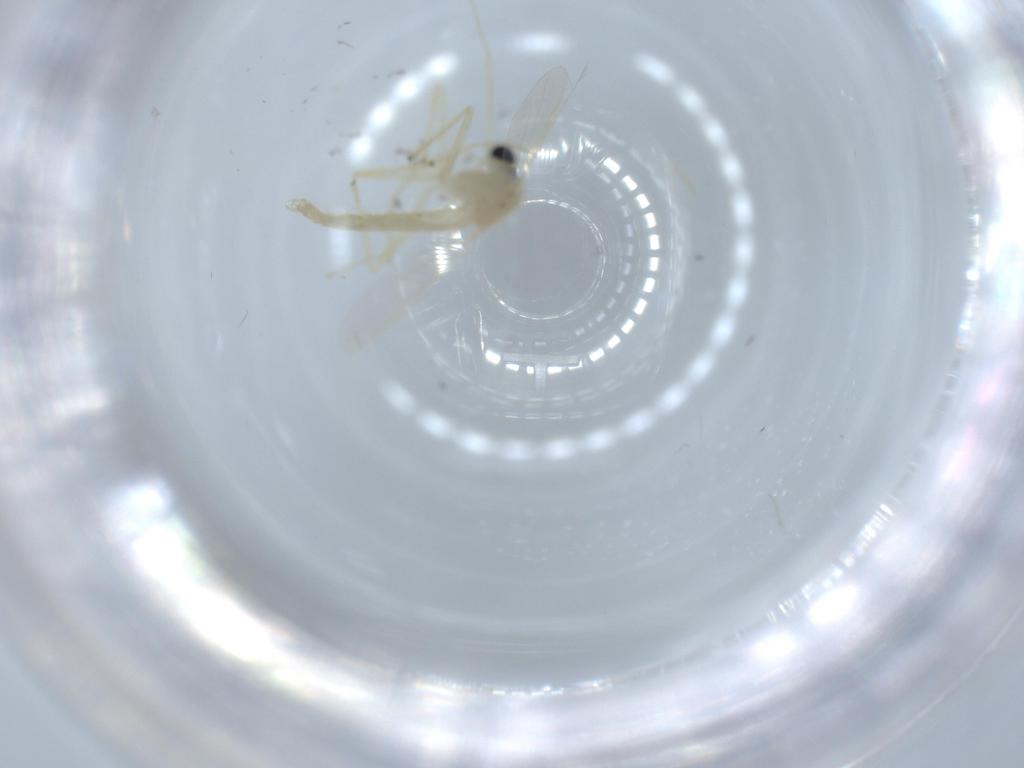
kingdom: Animalia
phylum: Arthropoda
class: Insecta
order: Diptera
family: Chironomidae
